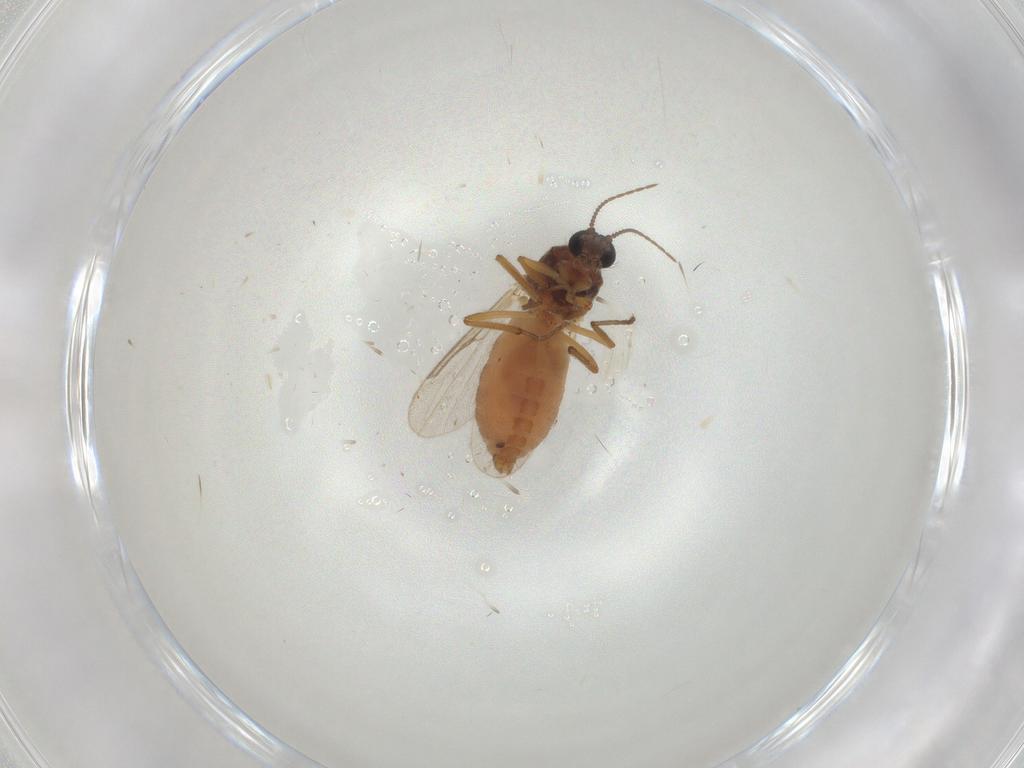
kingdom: Animalia
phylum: Arthropoda
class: Insecta
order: Diptera
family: Ceratopogonidae
